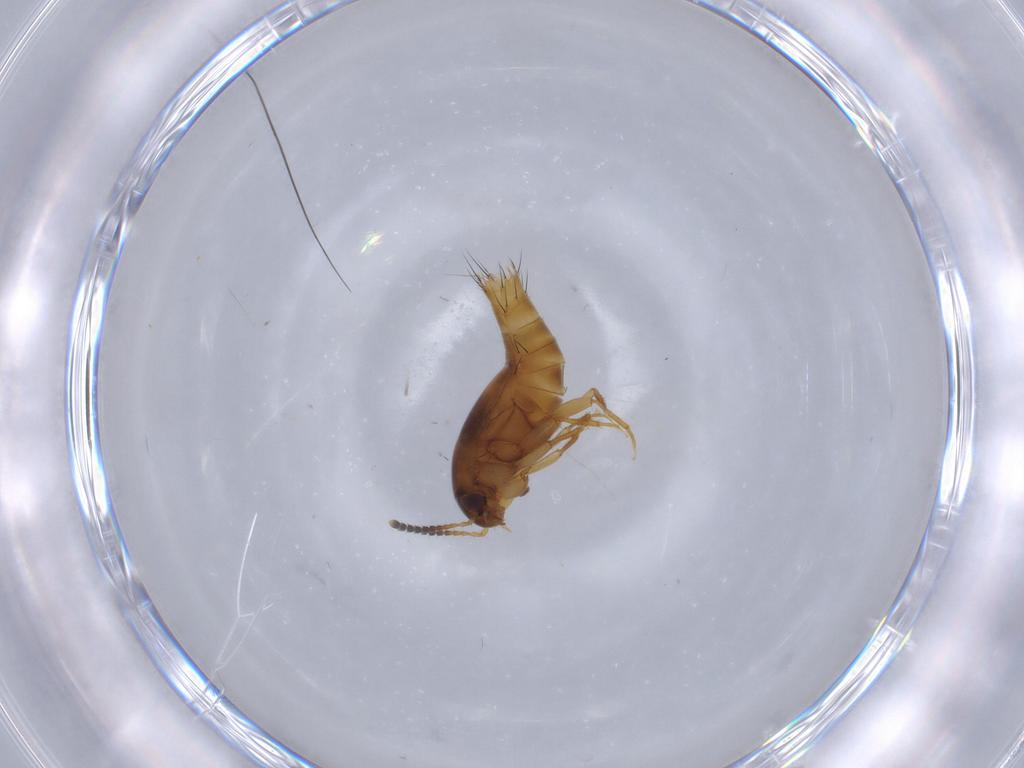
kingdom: Animalia
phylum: Arthropoda
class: Insecta
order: Coleoptera
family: Staphylinidae
